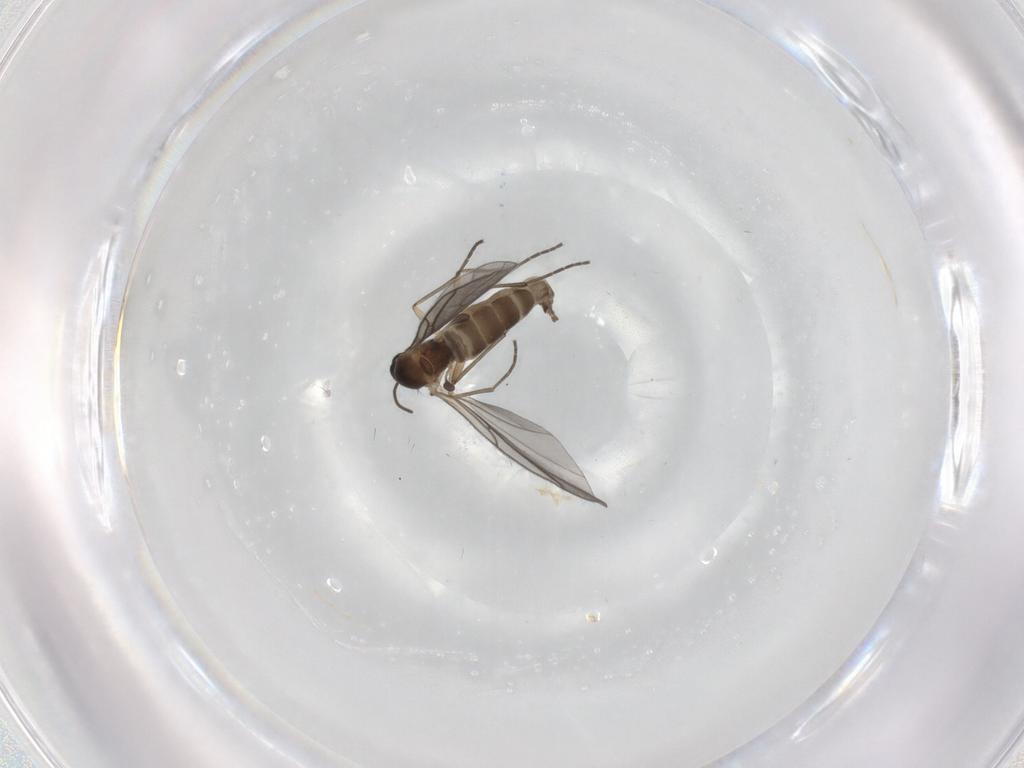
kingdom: Animalia
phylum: Arthropoda
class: Insecta
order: Diptera
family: Sciaridae
